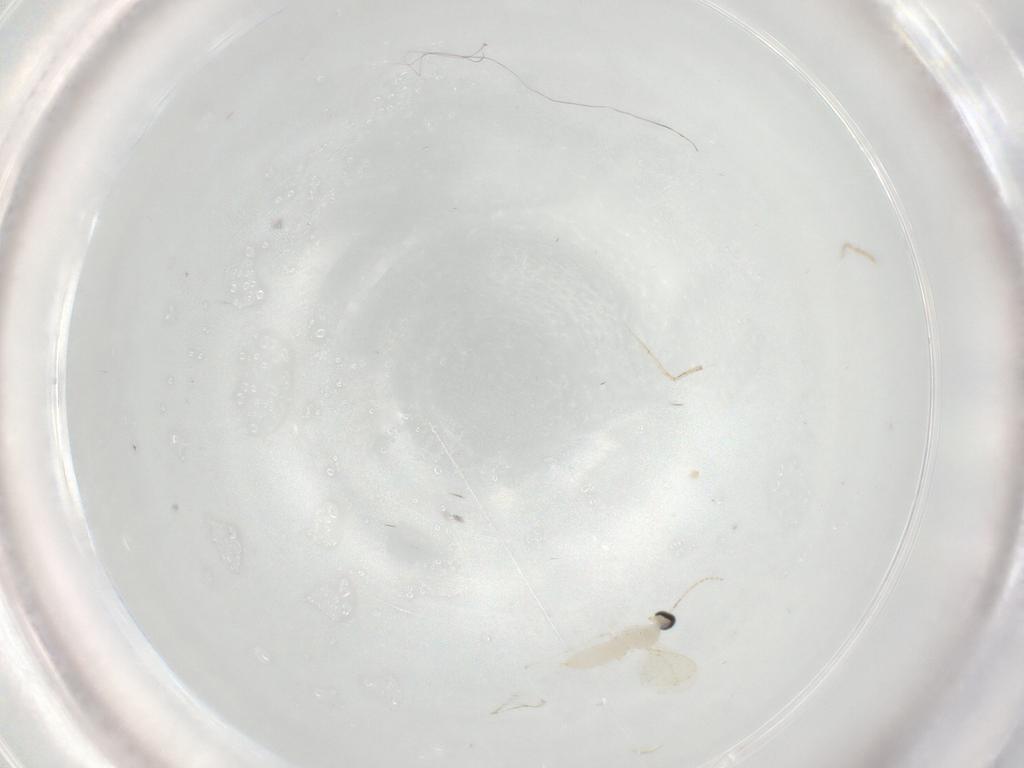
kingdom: Animalia
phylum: Arthropoda
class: Insecta
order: Diptera
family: Cecidomyiidae
